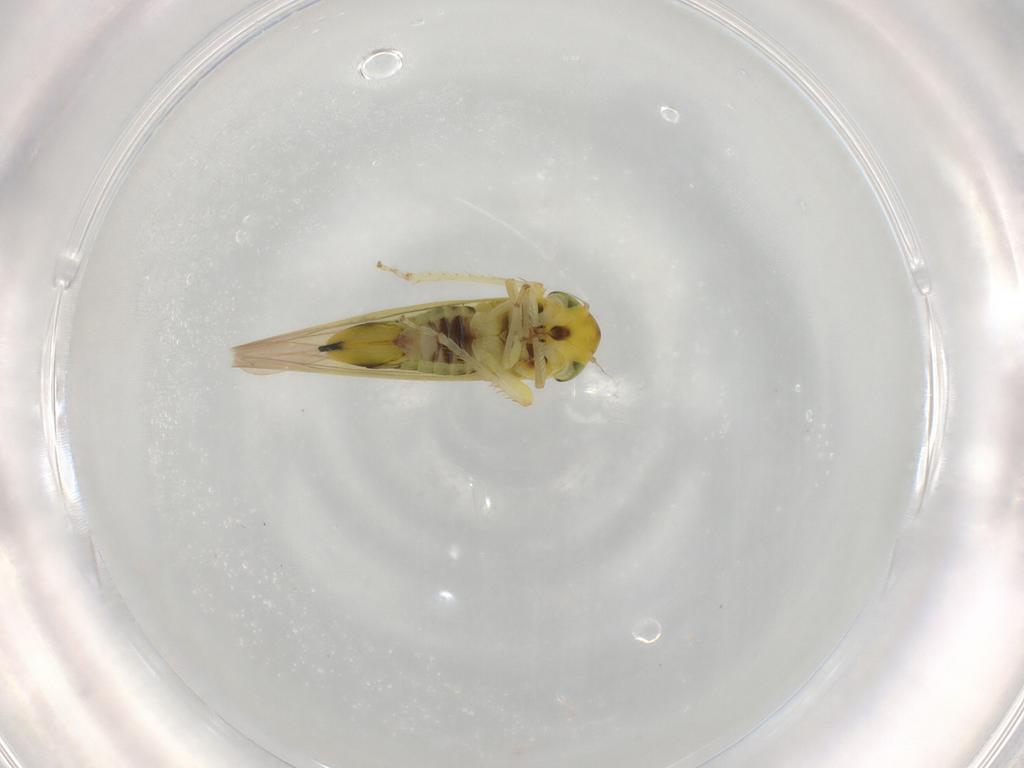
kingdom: Animalia
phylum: Arthropoda
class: Insecta
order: Hemiptera
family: Cicadellidae
